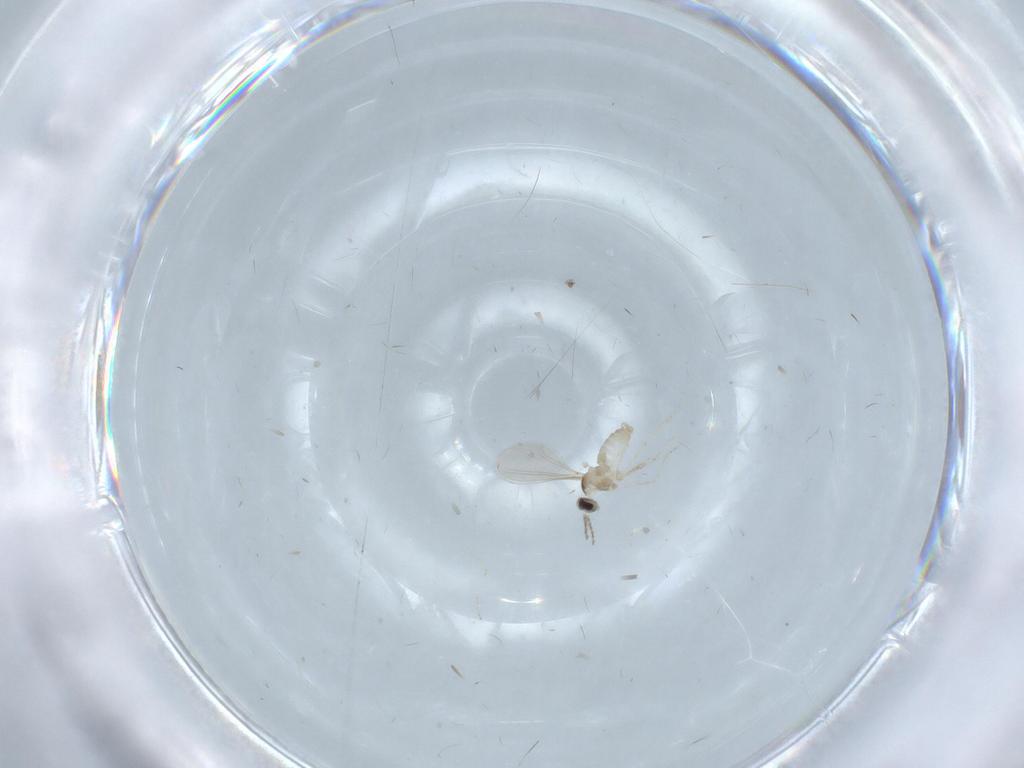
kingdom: Animalia
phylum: Arthropoda
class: Insecta
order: Diptera
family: Cecidomyiidae
